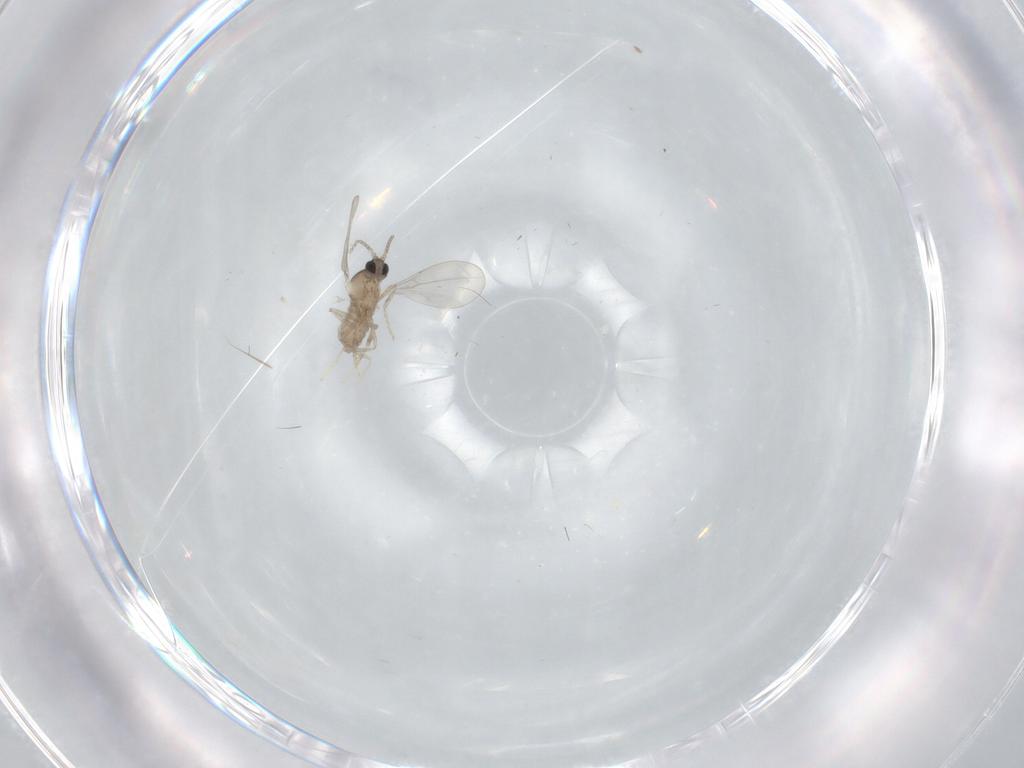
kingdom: Animalia
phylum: Arthropoda
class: Insecta
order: Diptera
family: Cecidomyiidae
